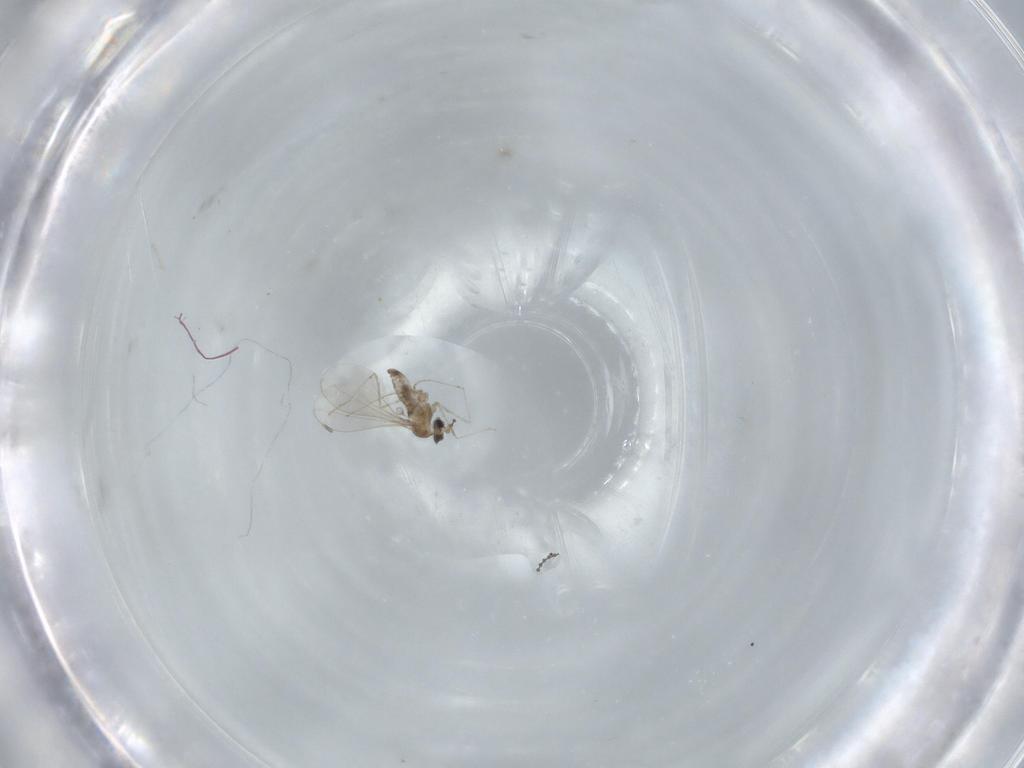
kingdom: Animalia
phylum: Arthropoda
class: Insecta
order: Diptera
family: Cecidomyiidae
